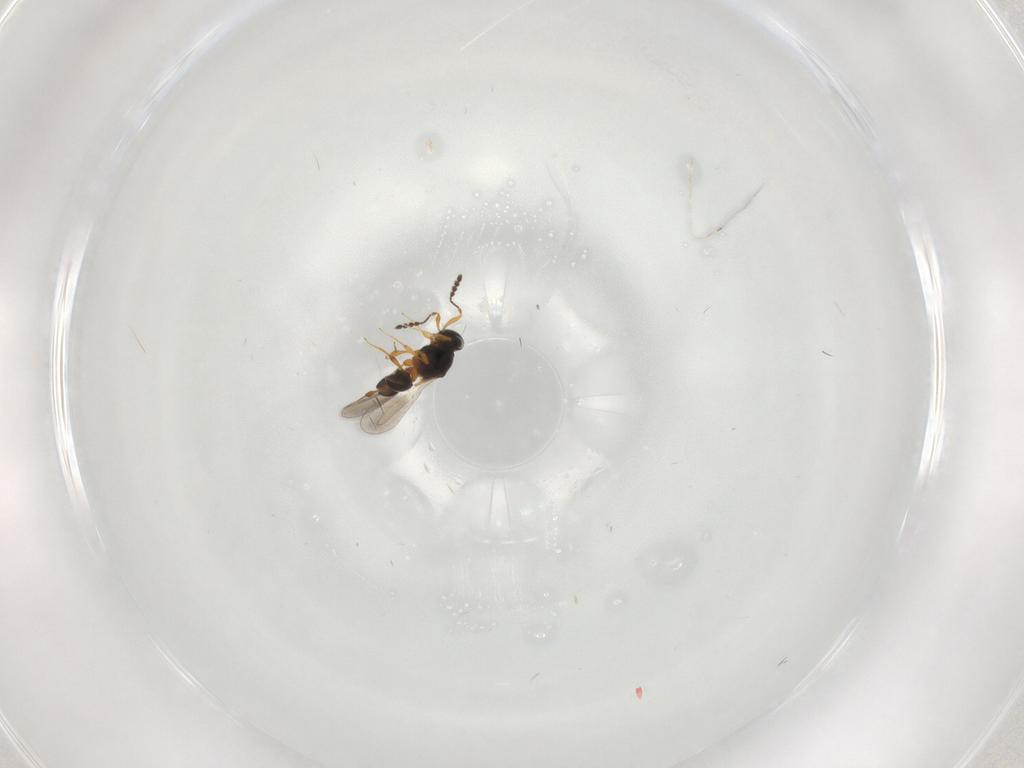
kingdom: Animalia
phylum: Arthropoda
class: Insecta
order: Hymenoptera
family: Platygastridae
